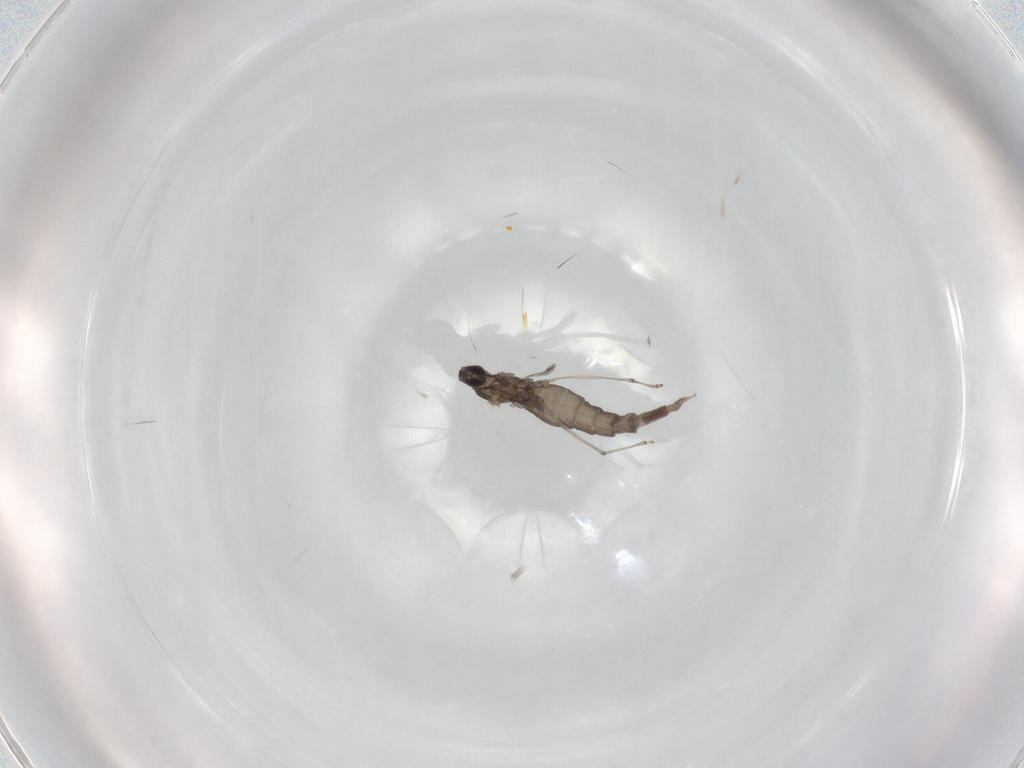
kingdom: Animalia
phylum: Arthropoda
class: Insecta
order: Diptera
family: Cecidomyiidae
